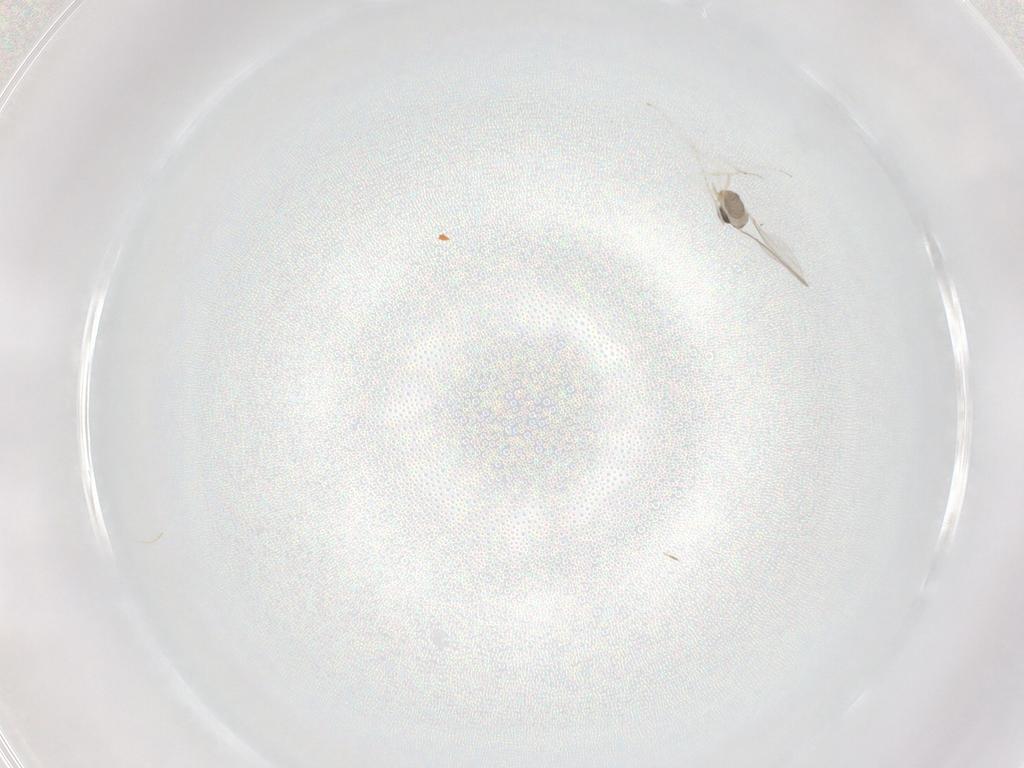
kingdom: Animalia
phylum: Arthropoda
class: Insecta
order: Diptera
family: Cecidomyiidae
